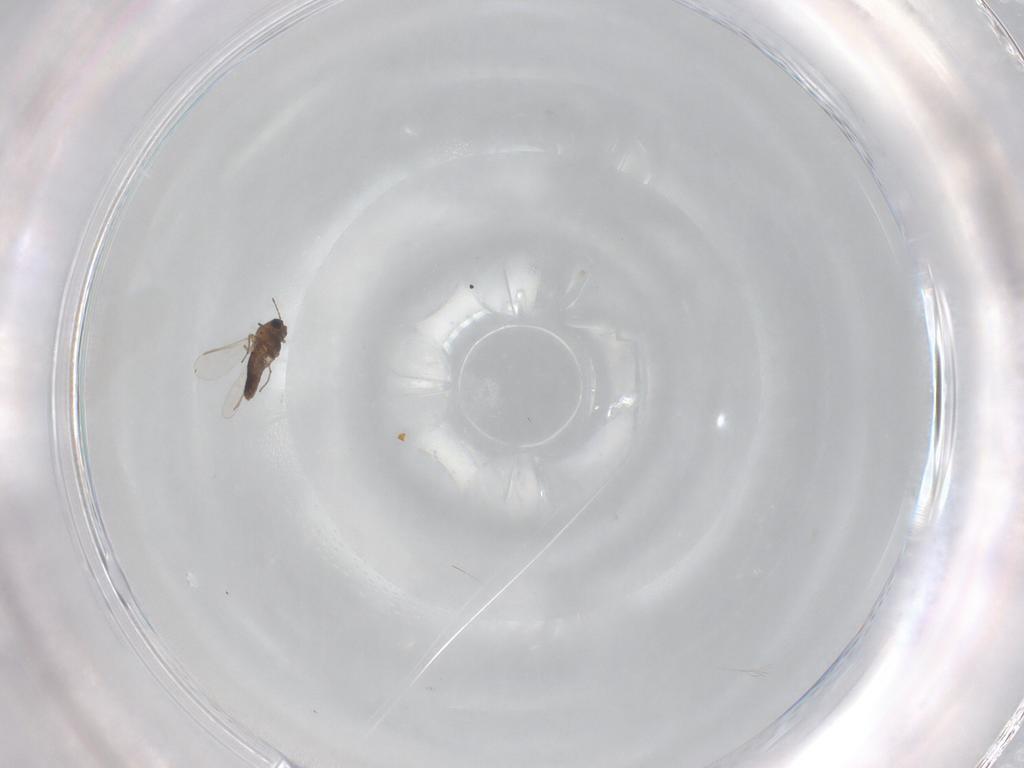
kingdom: Animalia
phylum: Arthropoda
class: Insecta
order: Diptera
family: Chironomidae
